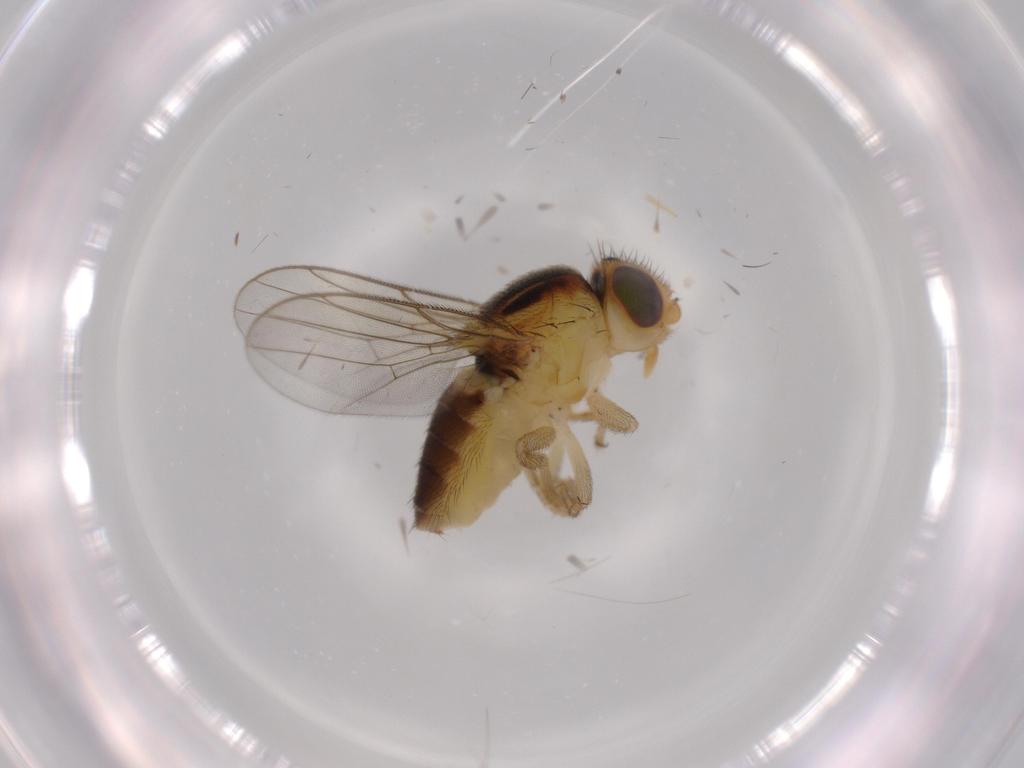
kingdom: Animalia
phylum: Arthropoda
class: Insecta
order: Diptera
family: Chloropidae
